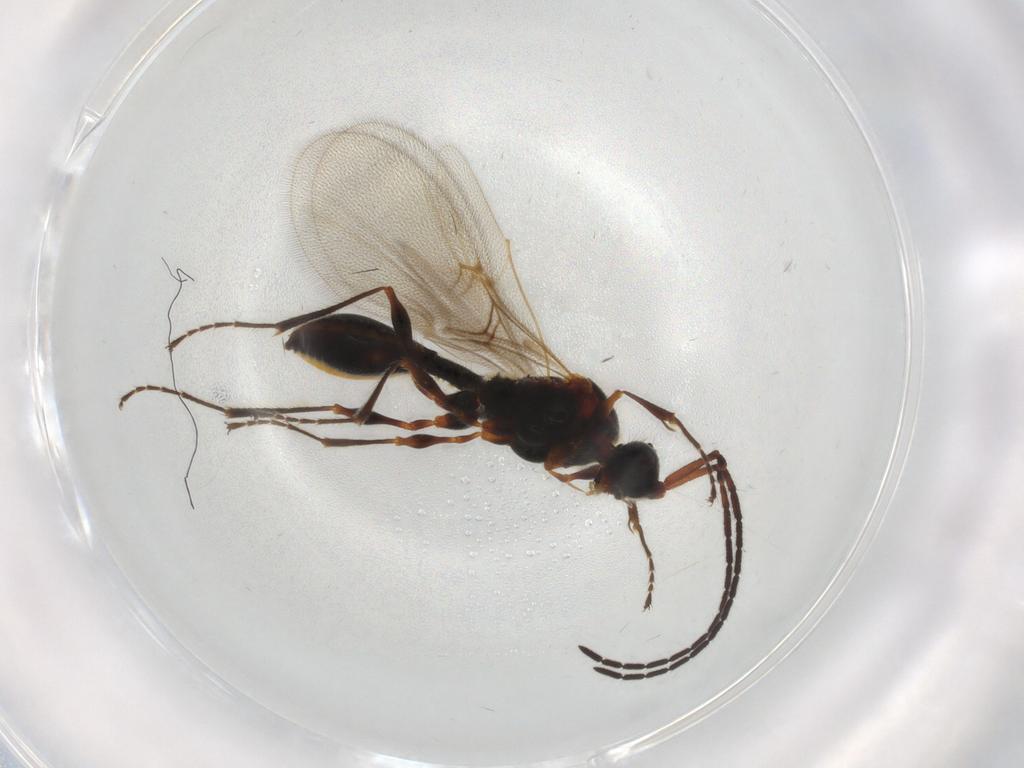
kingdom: Animalia
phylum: Arthropoda
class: Insecta
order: Hymenoptera
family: Diapriidae
